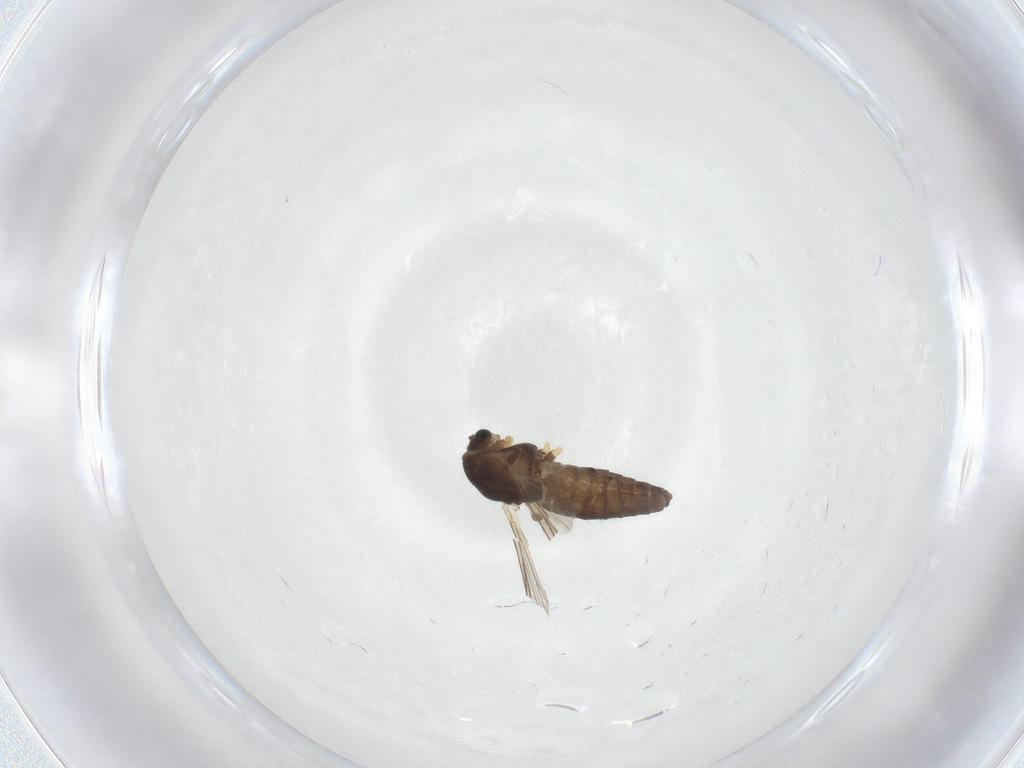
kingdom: Animalia
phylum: Arthropoda
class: Insecta
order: Diptera
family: Chironomidae
